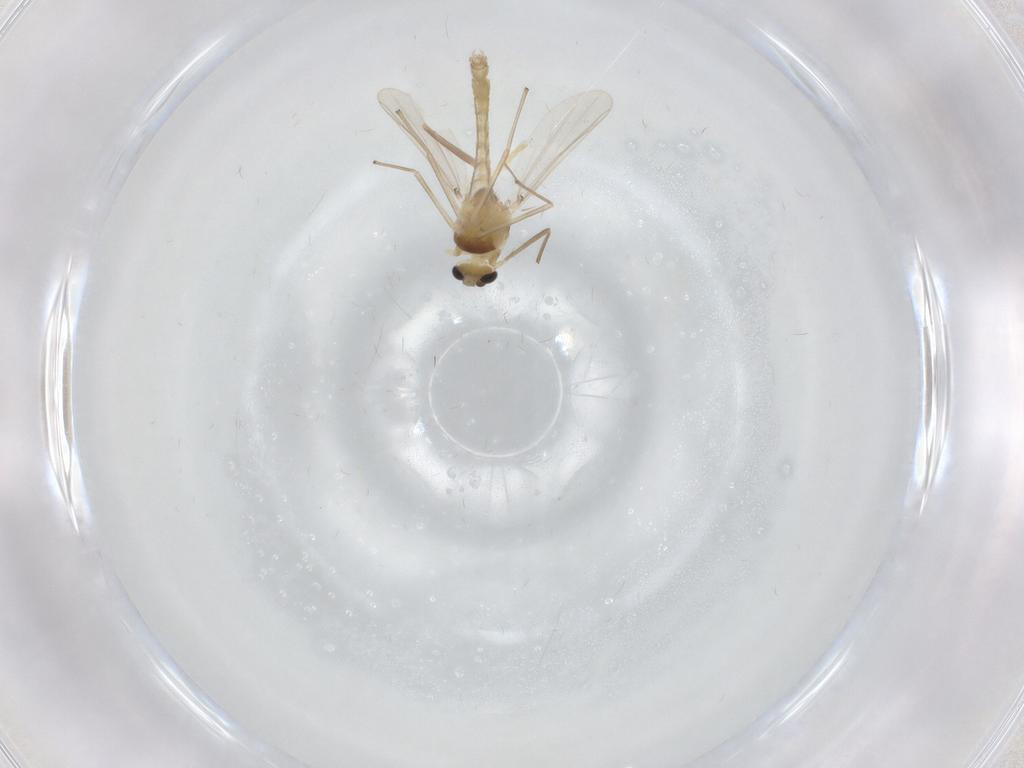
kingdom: Animalia
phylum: Arthropoda
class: Insecta
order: Diptera
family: Chironomidae
